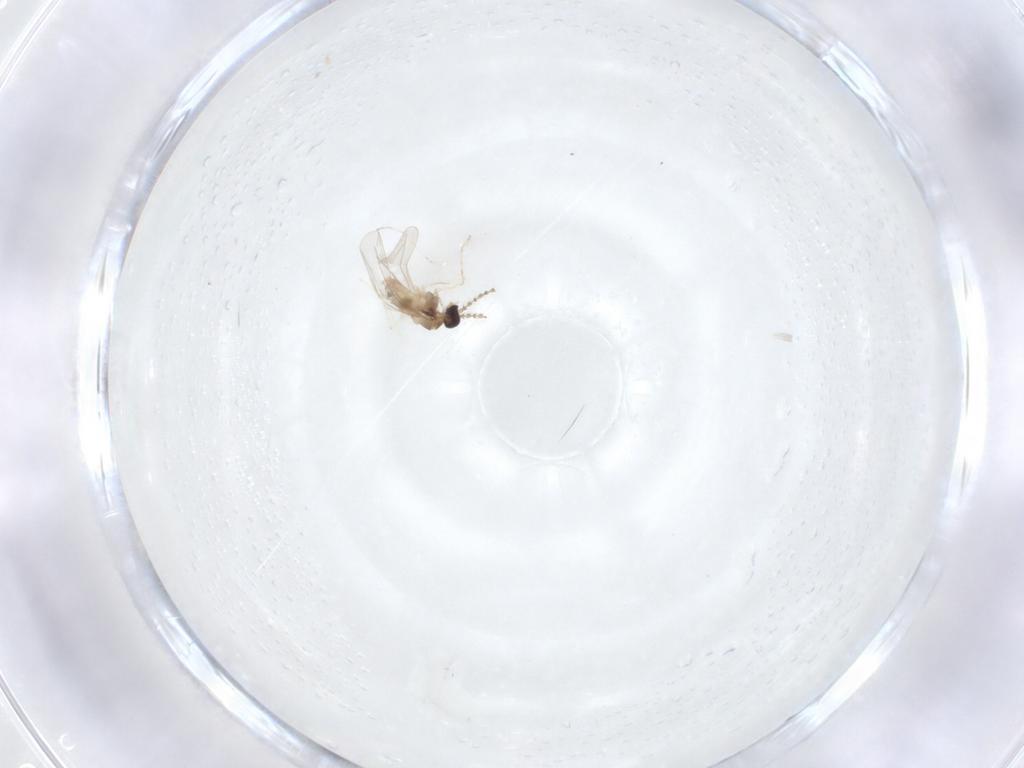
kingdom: Animalia
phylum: Arthropoda
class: Insecta
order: Diptera
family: Cecidomyiidae
